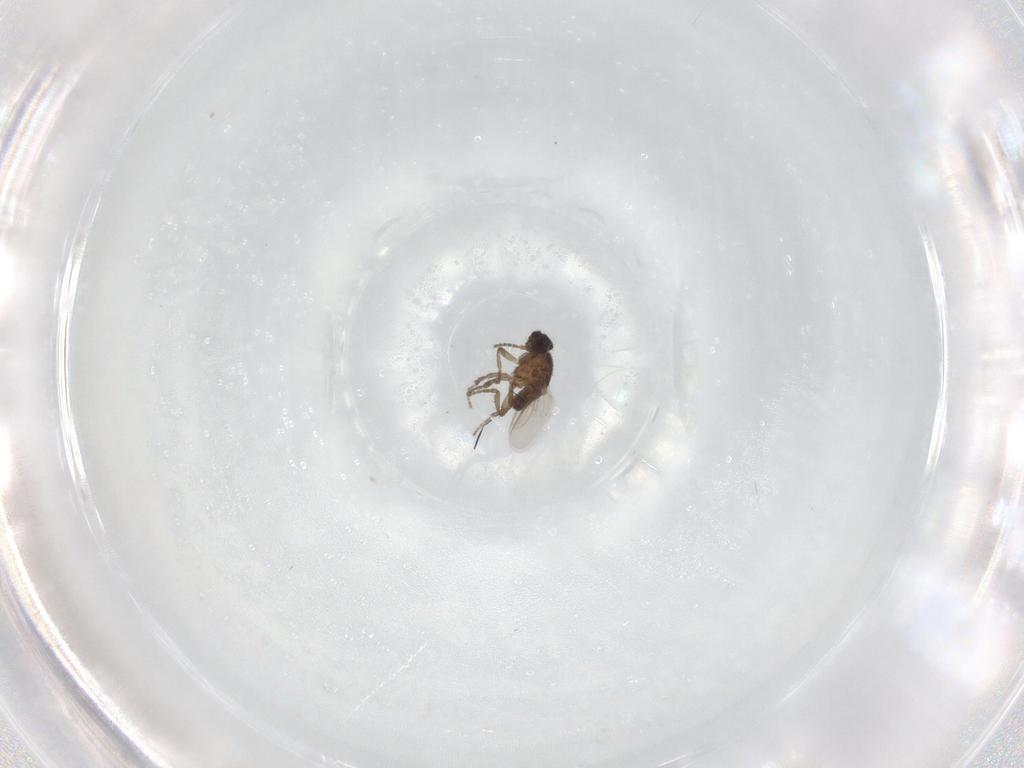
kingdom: Animalia
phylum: Arthropoda
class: Insecta
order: Diptera
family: Sphaeroceridae
